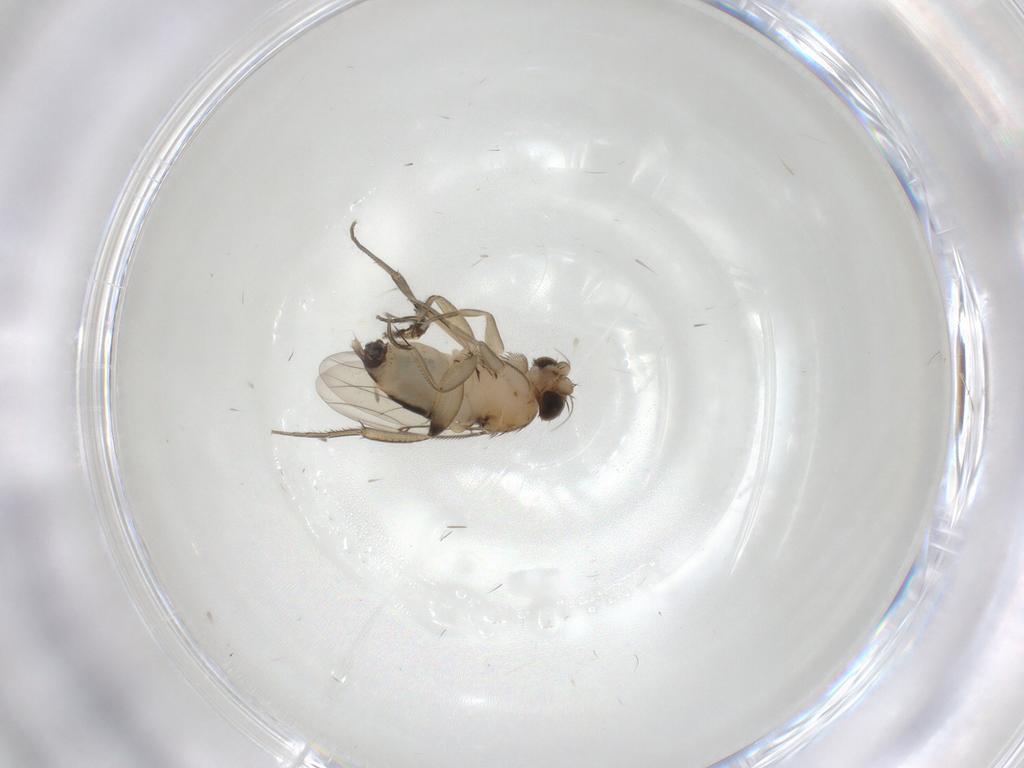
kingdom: Animalia
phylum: Arthropoda
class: Insecta
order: Diptera
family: Phoridae
